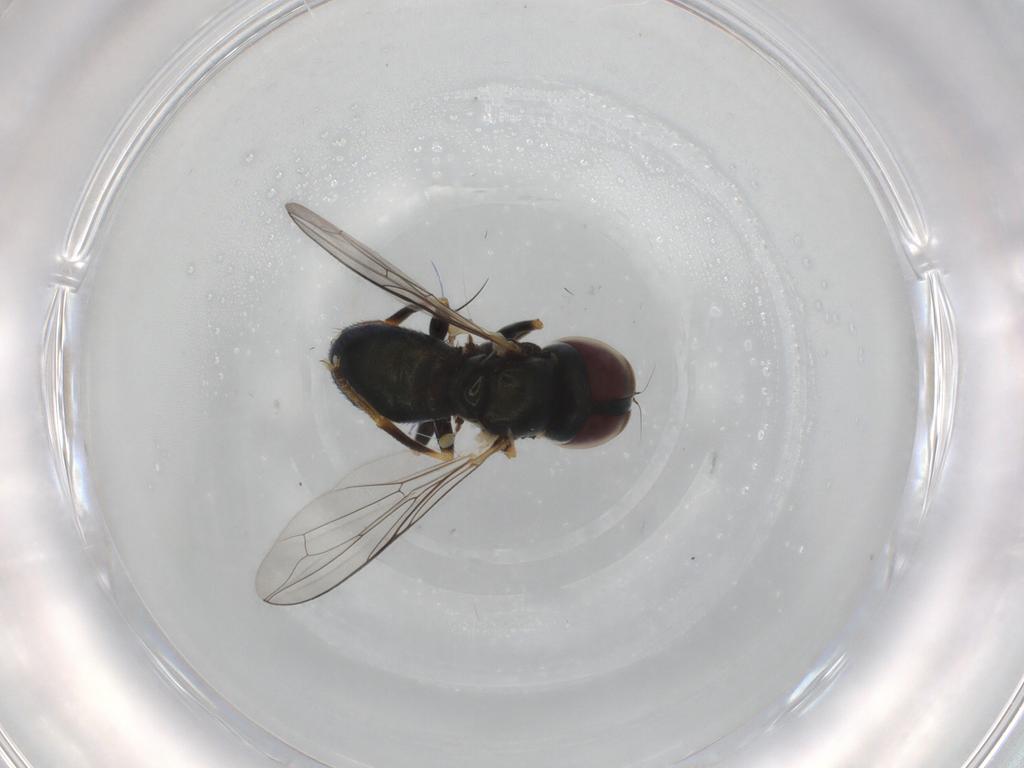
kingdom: Animalia
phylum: Arthropoda
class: Insecta
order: Diptera
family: Pipunculidae
